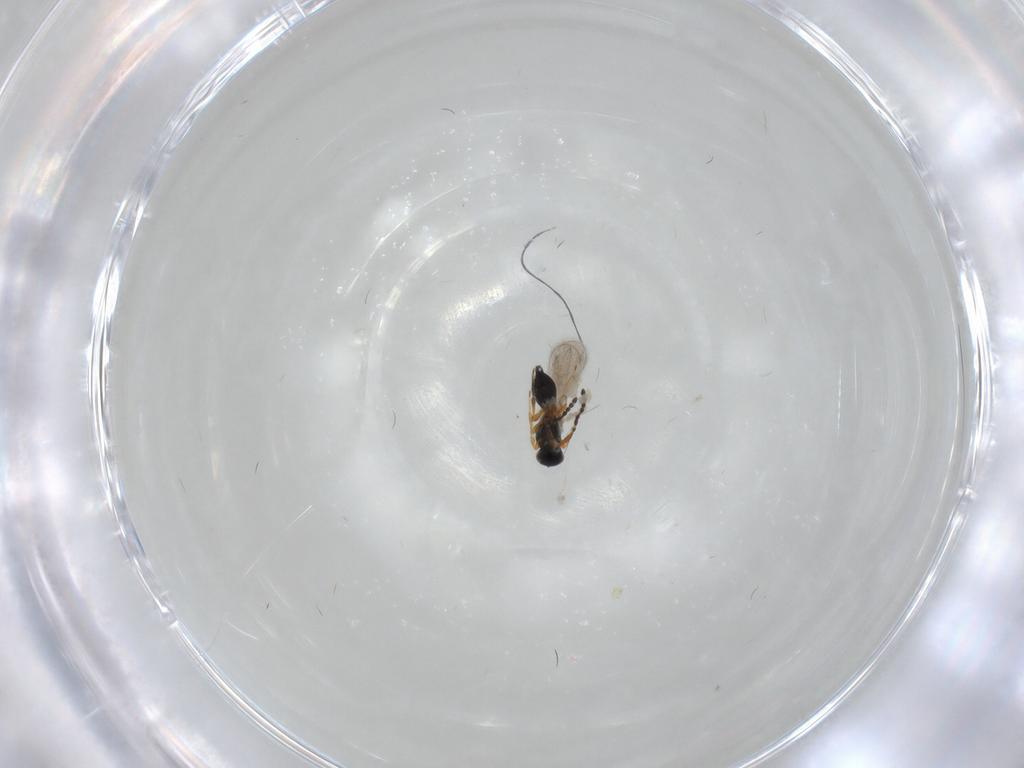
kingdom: Animalia
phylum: Arthropoda
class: Insecta
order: Hymenoptera
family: Platygastridae
